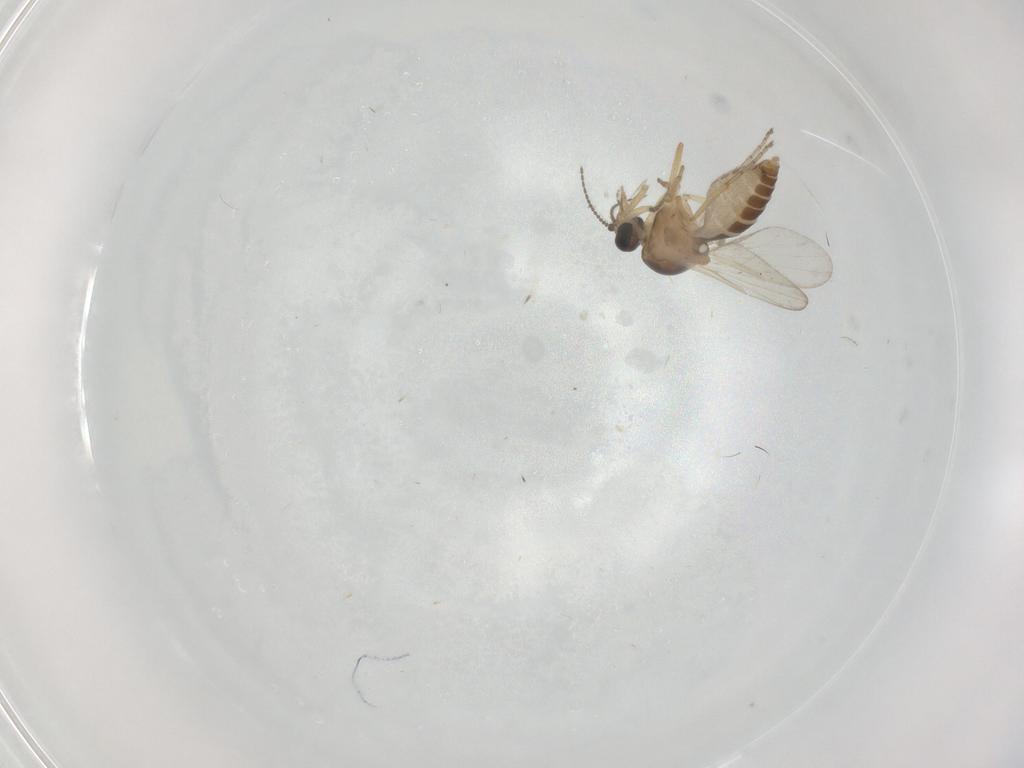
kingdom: Animalia
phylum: Arthropoda
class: Insecta
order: Diptera
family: Ceratopogonidae
